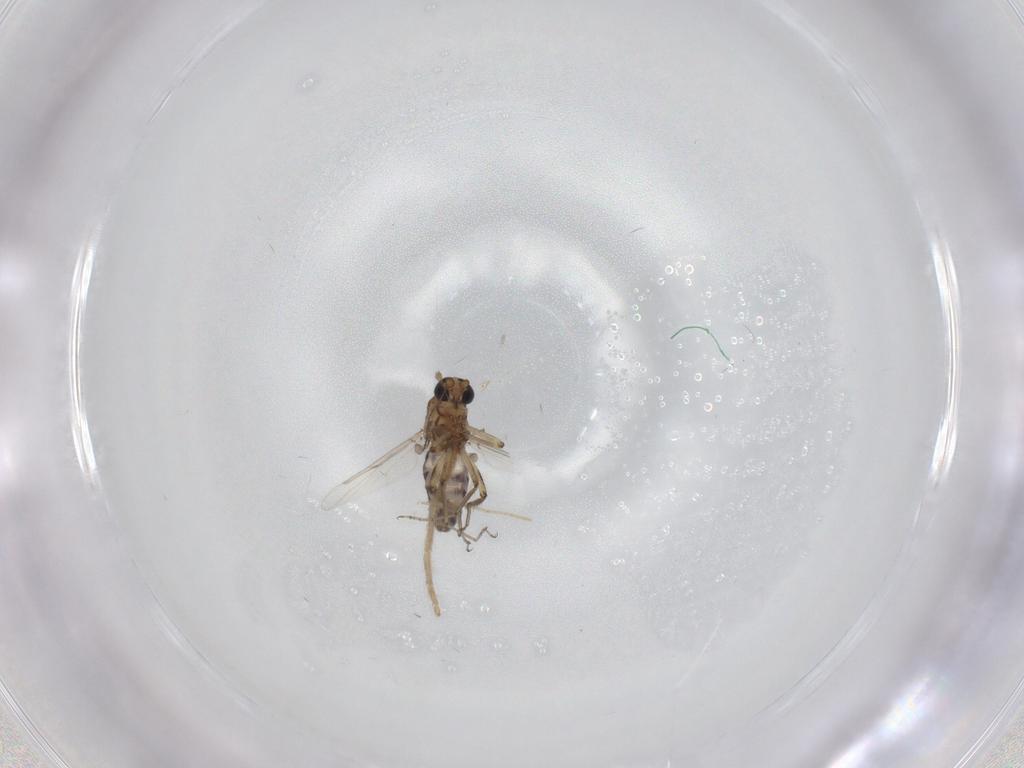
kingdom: Animalia
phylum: Arthropoda
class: Insecta
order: Diptera
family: Ceratopogonidae
